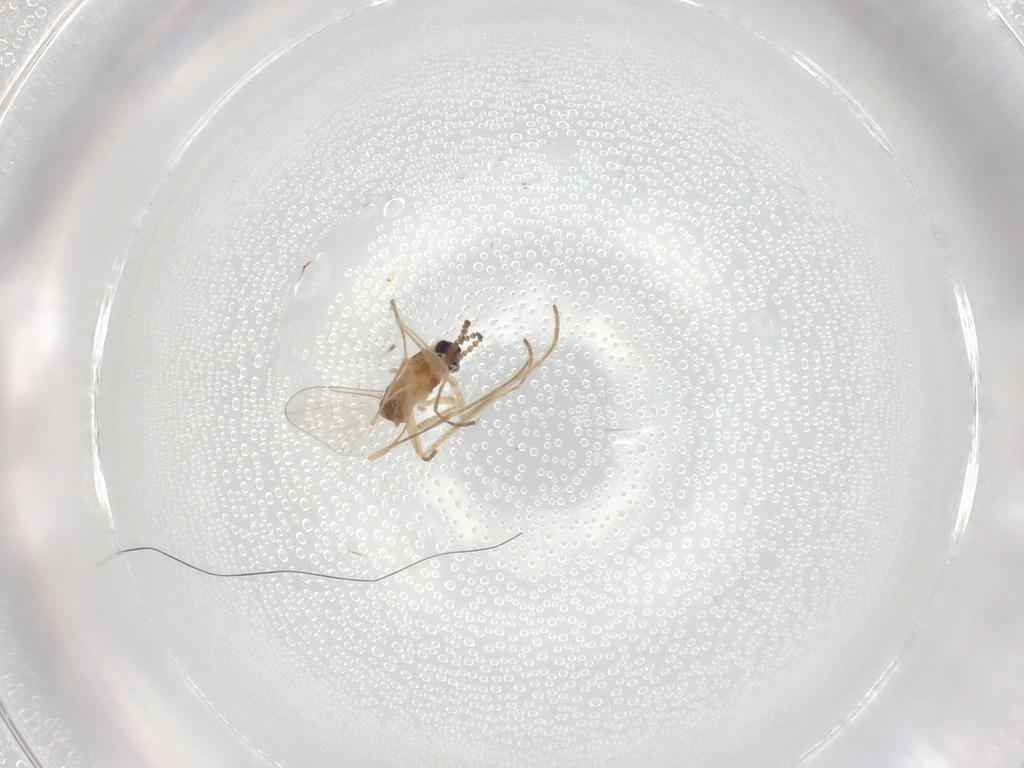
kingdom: Animalia
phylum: Arthropoda
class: Insecta
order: Diptera
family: Cecidomyiidae
